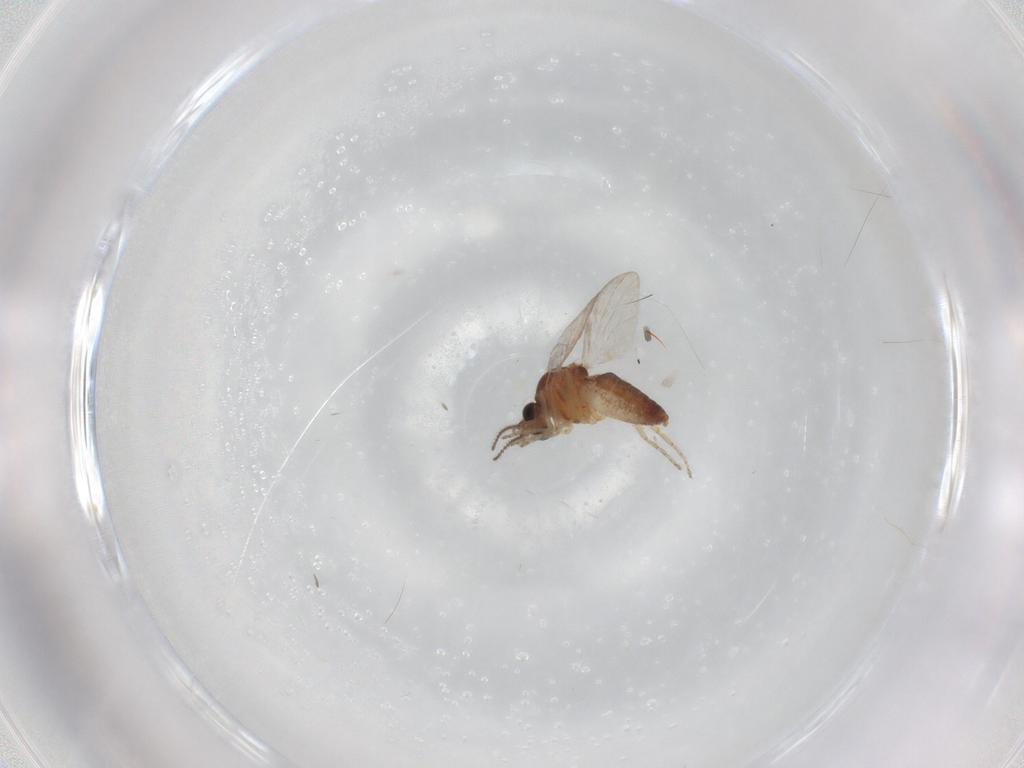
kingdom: Animalia
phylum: Arthropoda
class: Insecta
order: Diptera
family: Ceratopogonidae
